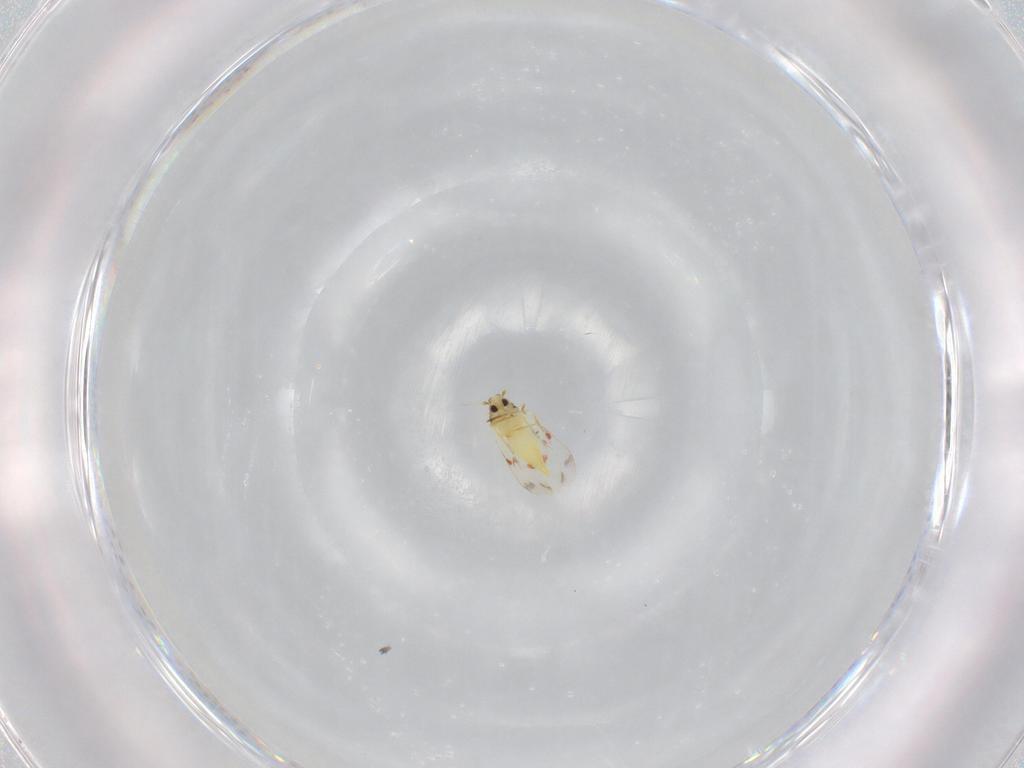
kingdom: Animalia
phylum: Arthropoda
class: Insecta
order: Hemiptera
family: Aleyrodidae
